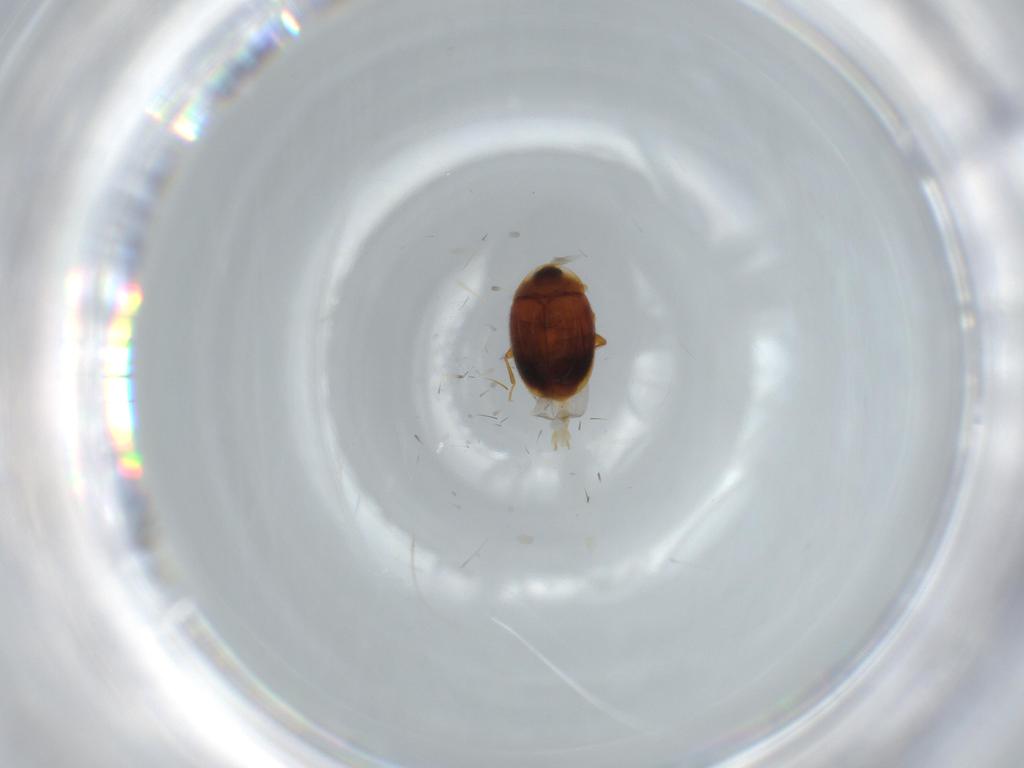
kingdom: Animalia
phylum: Arthropoda
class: Insecta
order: Coleoptera
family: Corylophidae
